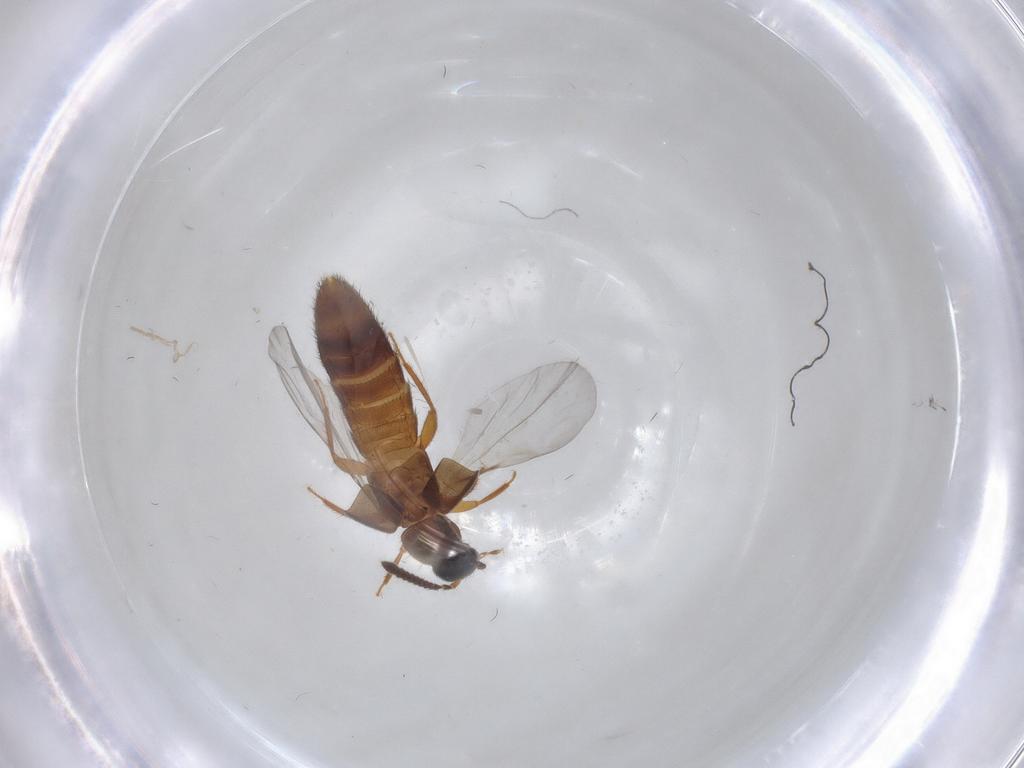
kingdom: Animalia
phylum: Arthropoda
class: Insecta
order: Coleoptera
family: Staphylinidae
